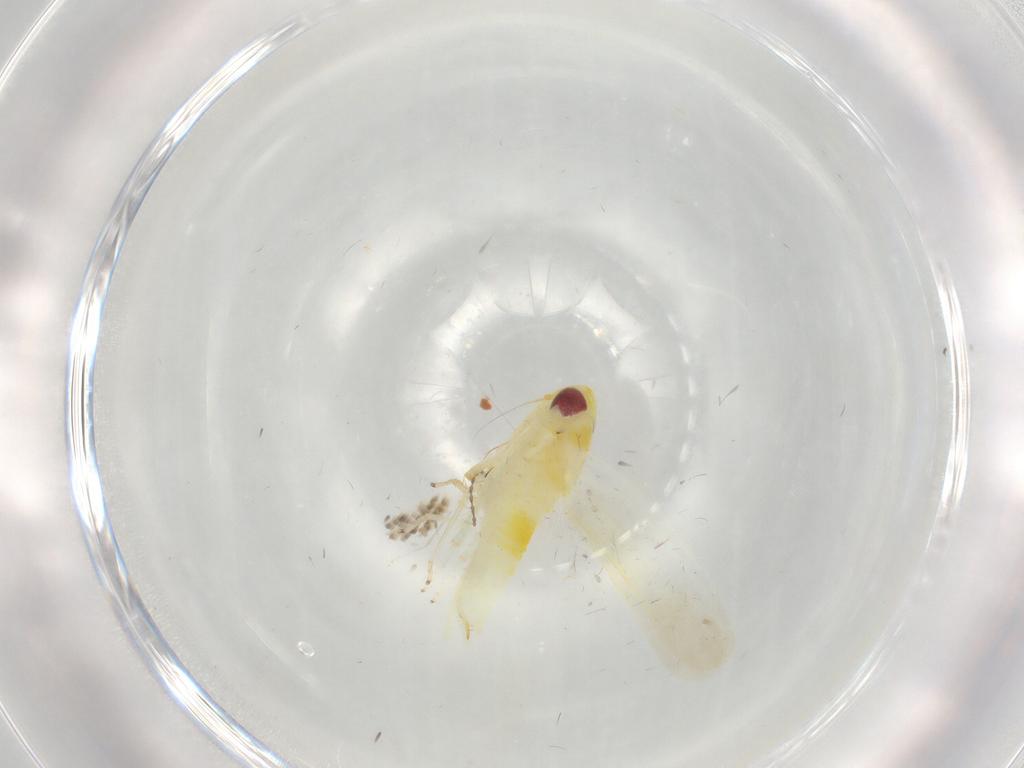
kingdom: Animalia
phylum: Arthropoda
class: Insecta
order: Hemiptera
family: Cicadellidae
